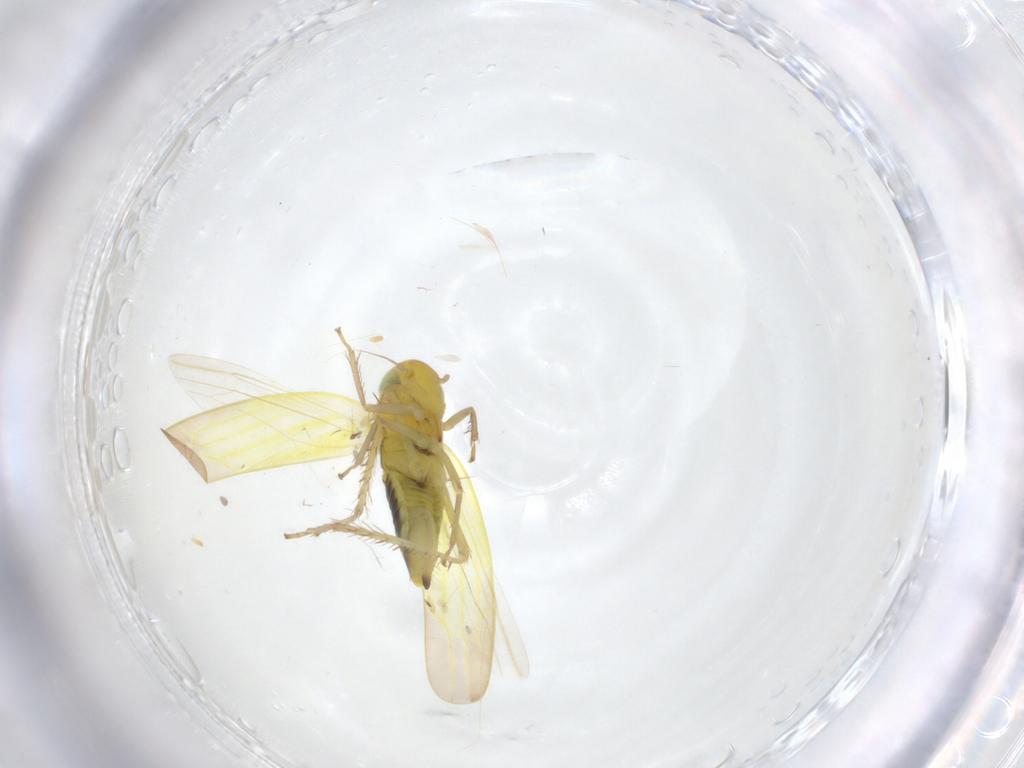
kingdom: Animalia
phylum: Arthropoda
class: Insecta
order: Hemiptera
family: Cicadellidae
